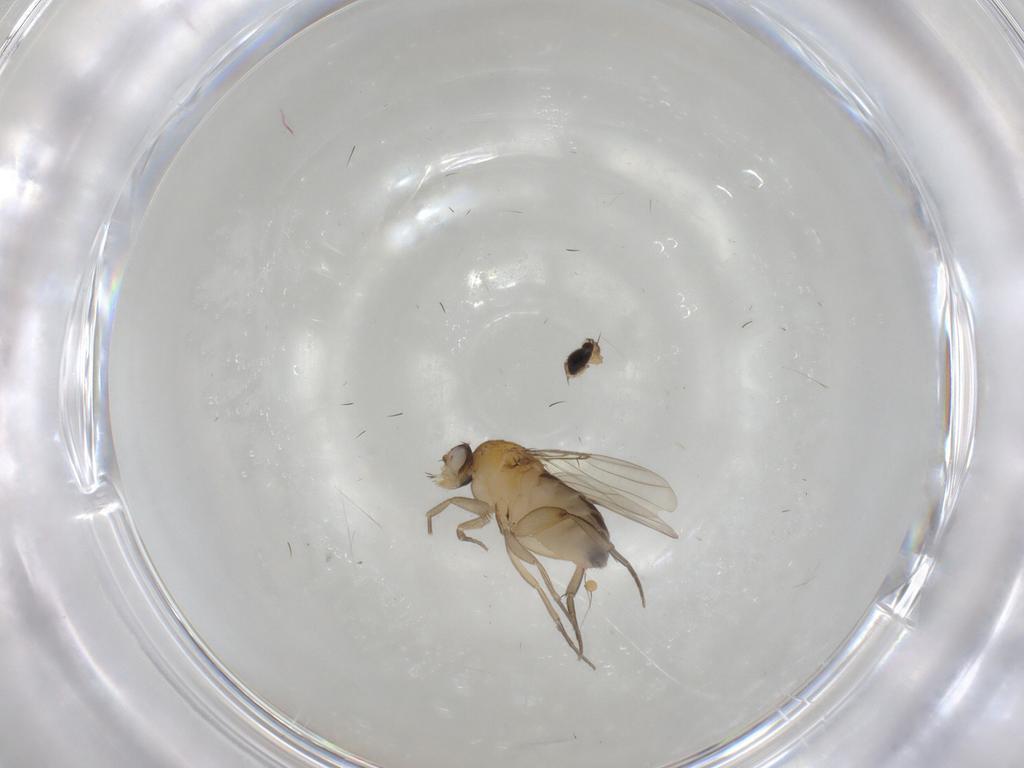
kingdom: Animalia
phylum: Arthropoda
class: Insecta
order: Diptera
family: Phoridae
